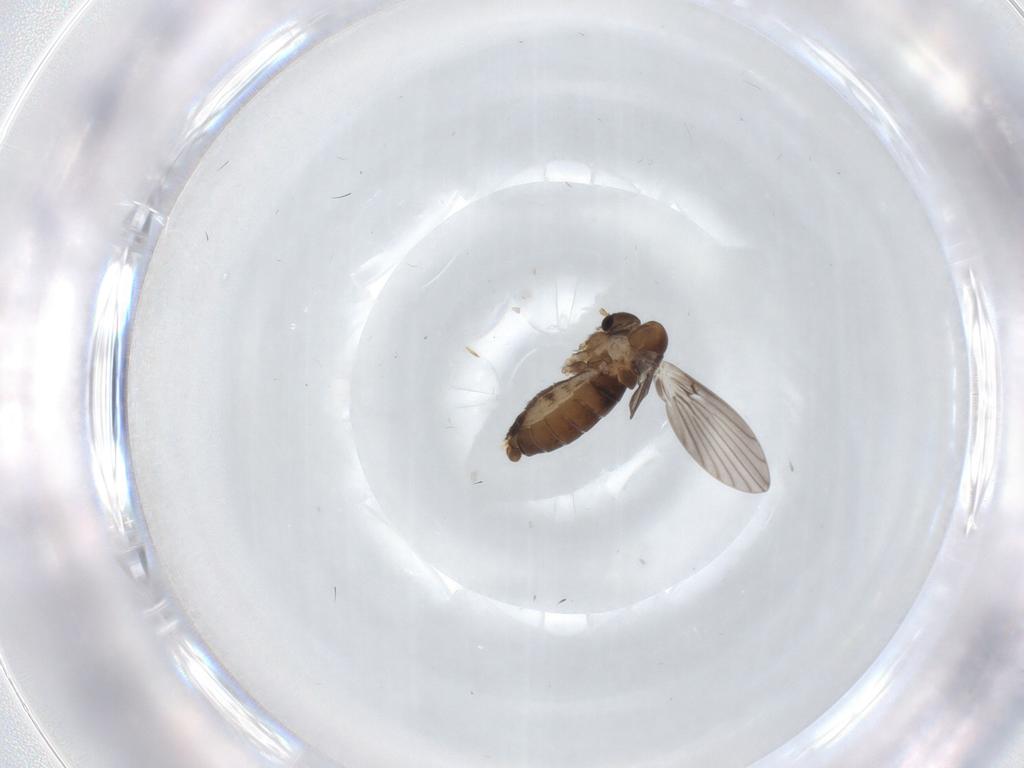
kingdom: Animalia
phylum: Arthropoda
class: Insecta
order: Diptera
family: Psychodidae
